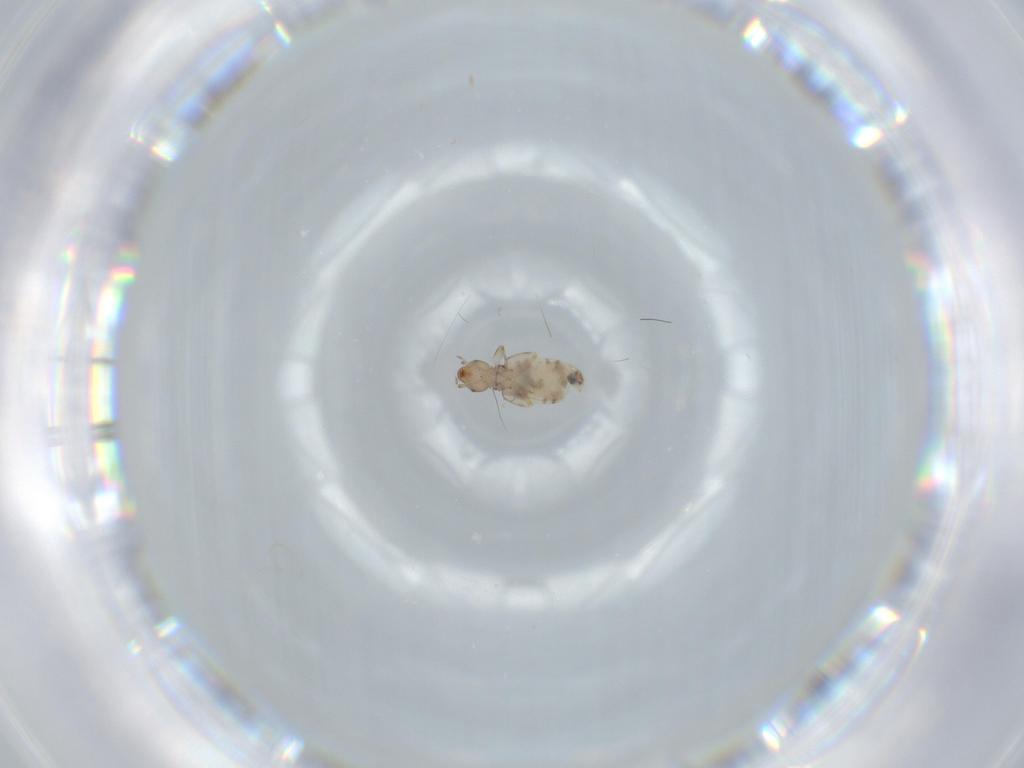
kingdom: Animalia
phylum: Arthropoda
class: Insecta
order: Psocodea
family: Liposcelididae
